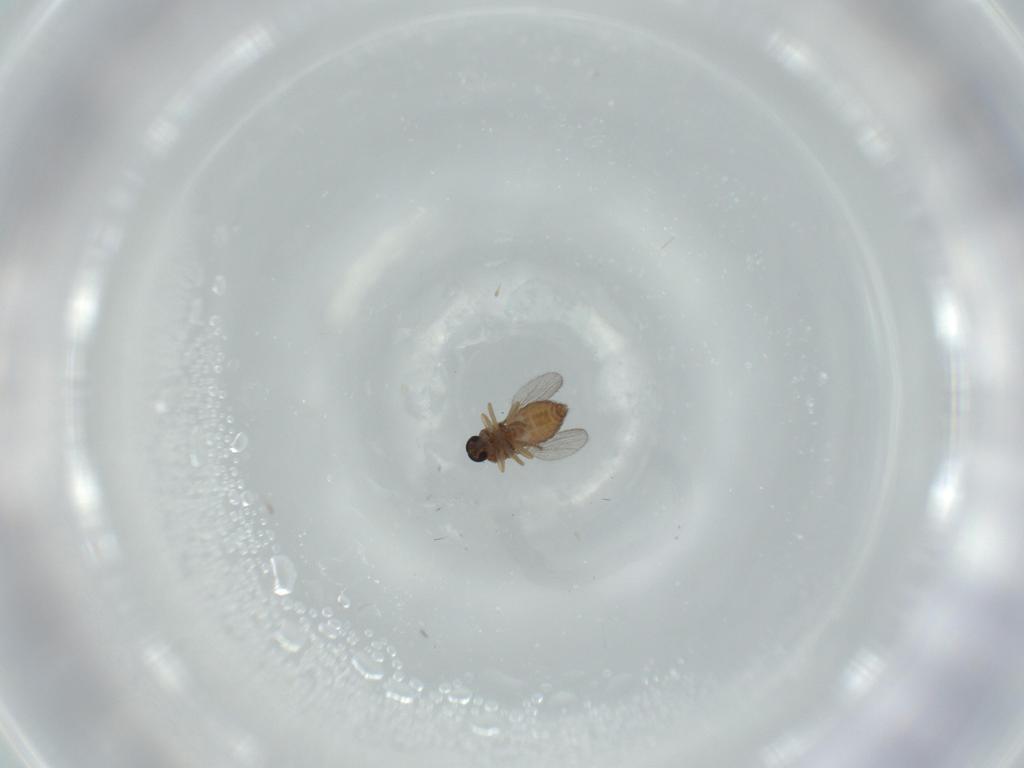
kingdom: Animalia
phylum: Arthropoda
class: Insecta
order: Diptera
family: Ceratopogonidae
